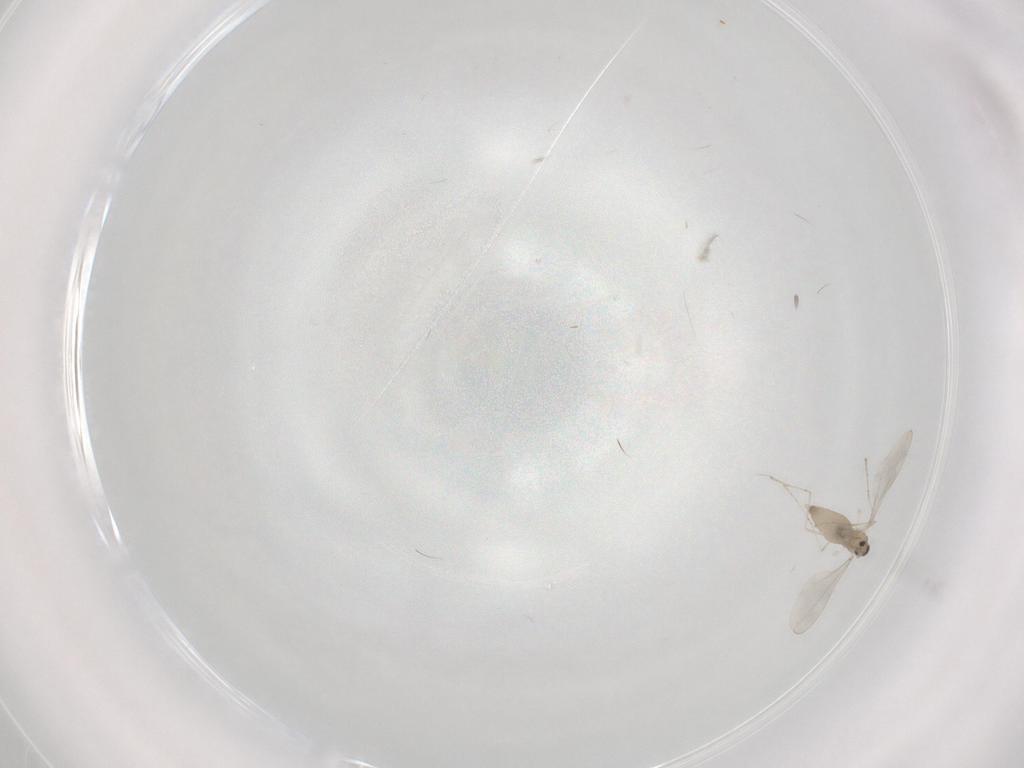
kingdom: Animalia
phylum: Arthropoda
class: Insecta
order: Diptera
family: Cecidomyiidae
